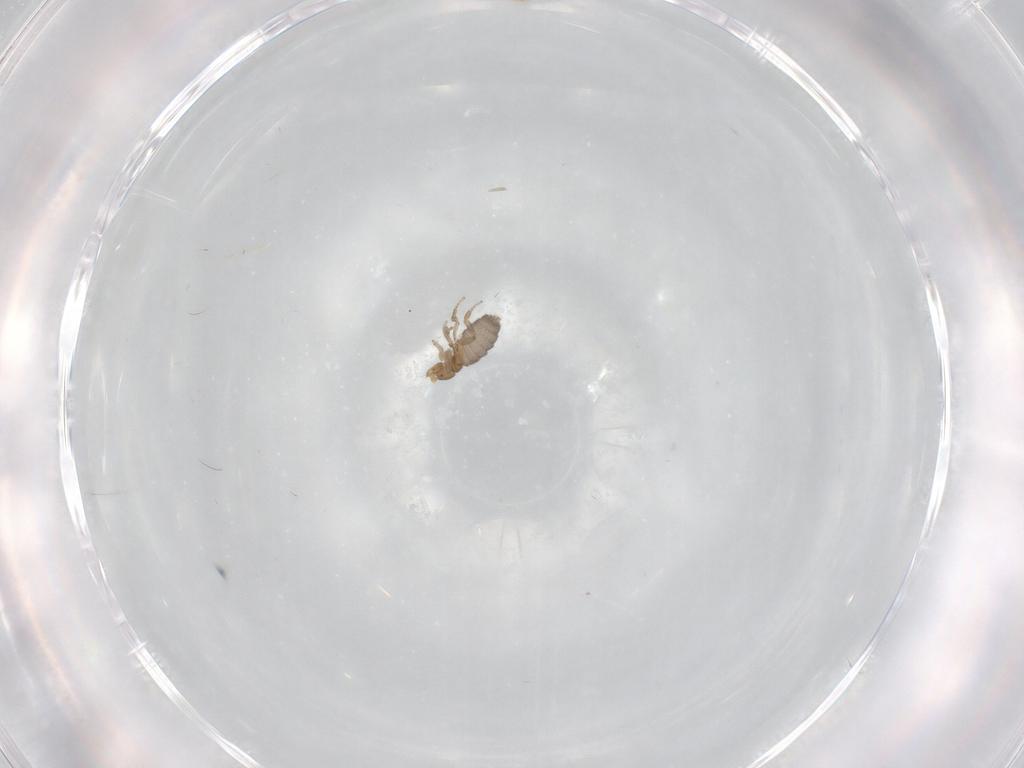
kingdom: Animalia
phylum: Arthropoda
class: Insecta
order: Diptera
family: Phoridae
